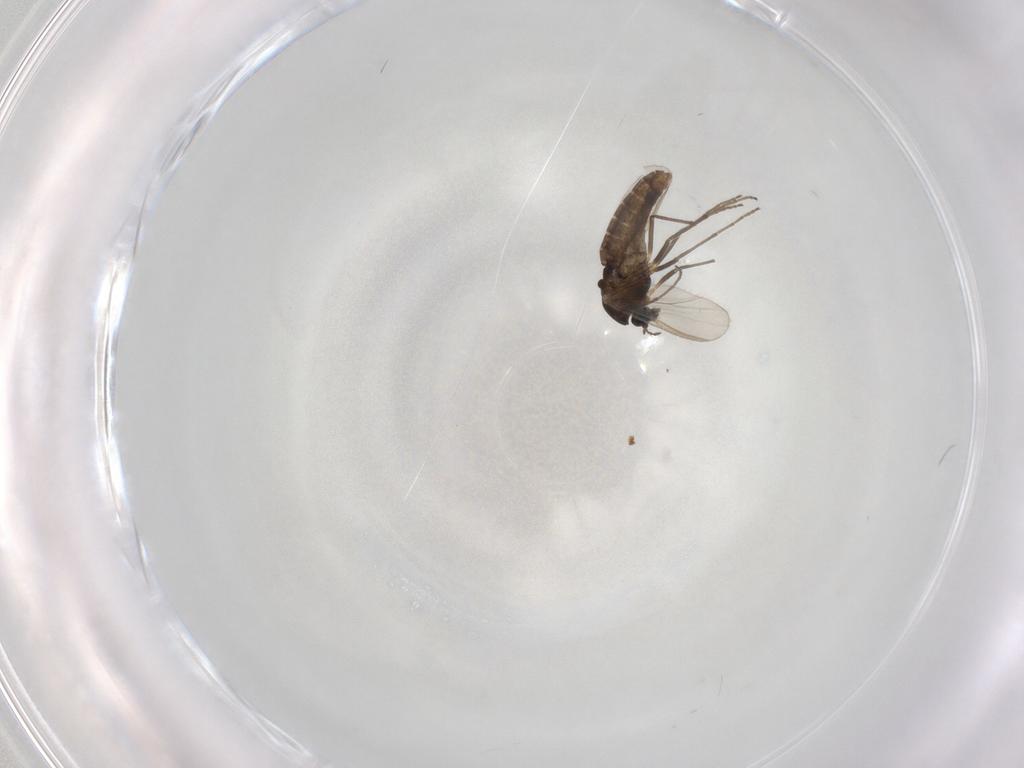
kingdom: Animalia
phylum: Arthropoda
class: Insecta
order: Diptera
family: Chironomidae
